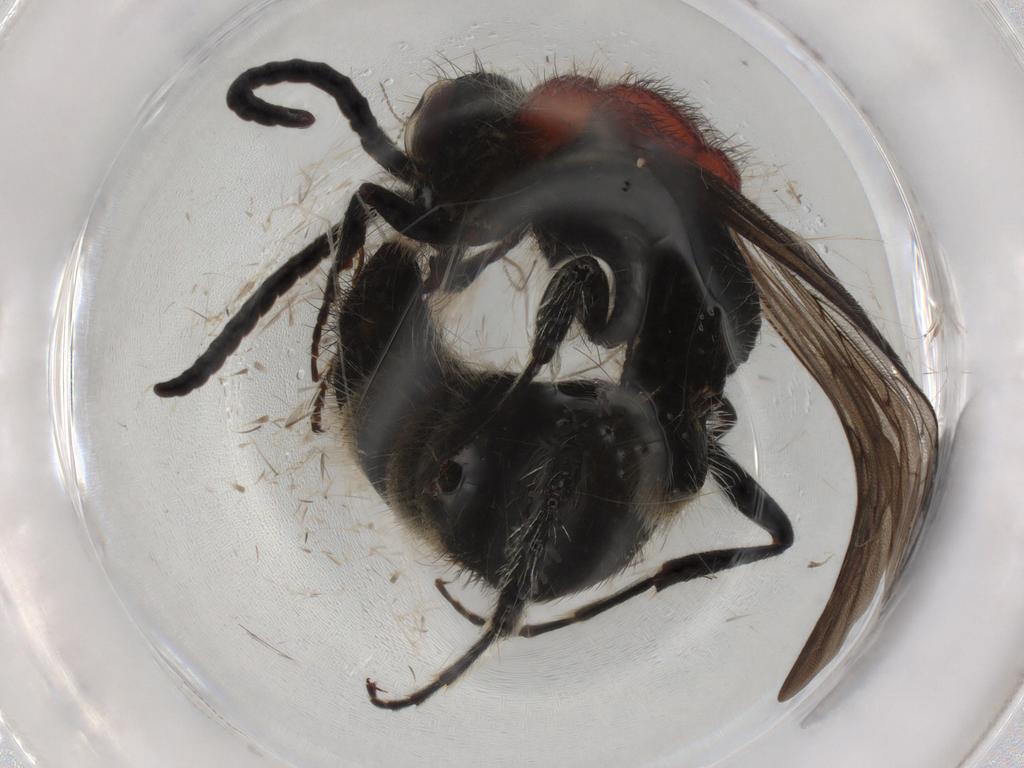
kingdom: Animalia
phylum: Arthropoda
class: Insecta
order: Hymenoptera
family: Eupelmidae
